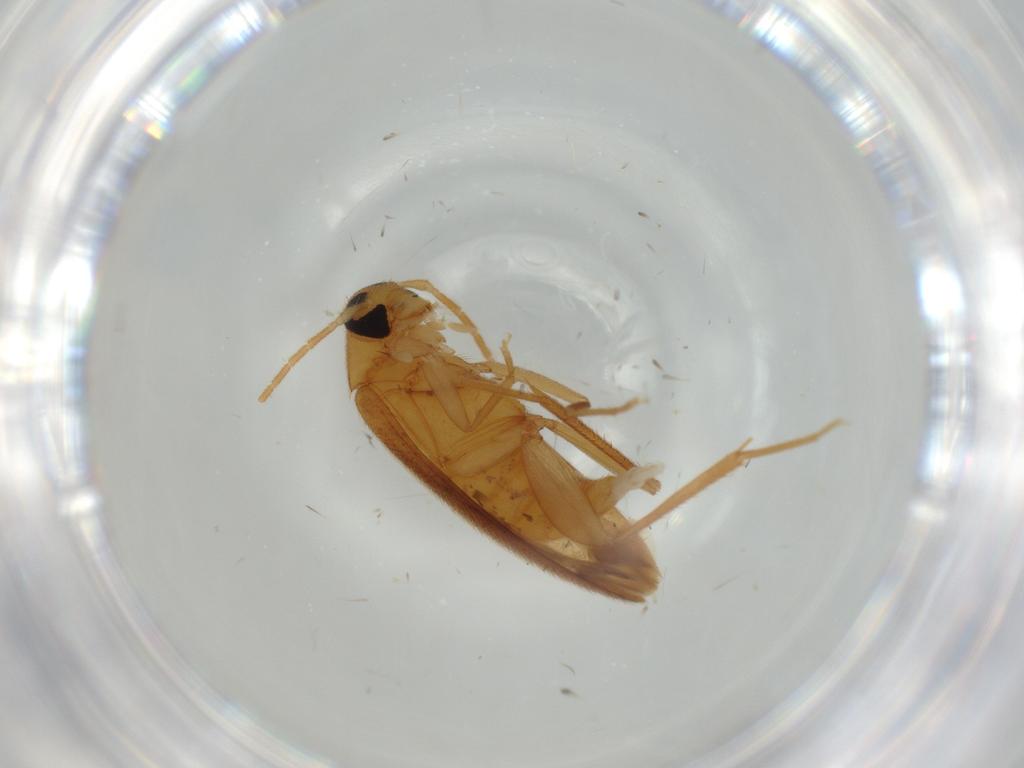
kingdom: Animalia
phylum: Arthropoda
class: Insecta
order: Coleoptera
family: Scraptiidae
